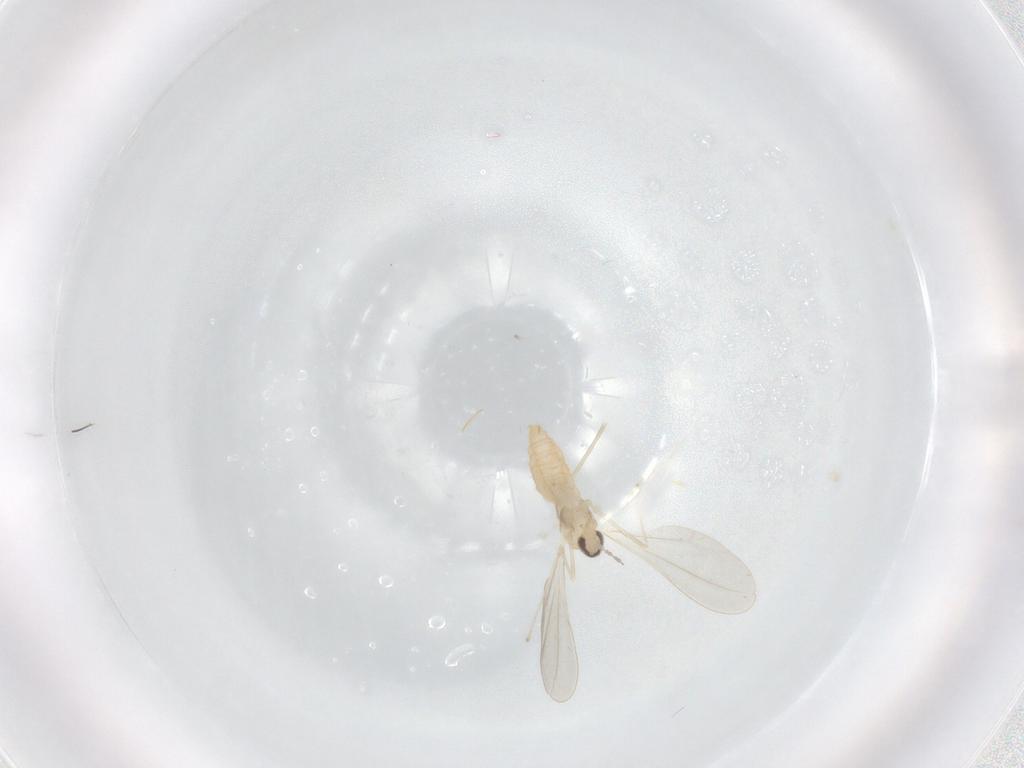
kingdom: Animalia
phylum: Arthropoda
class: Insecta
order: Diptera
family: Cecidomyiidae
